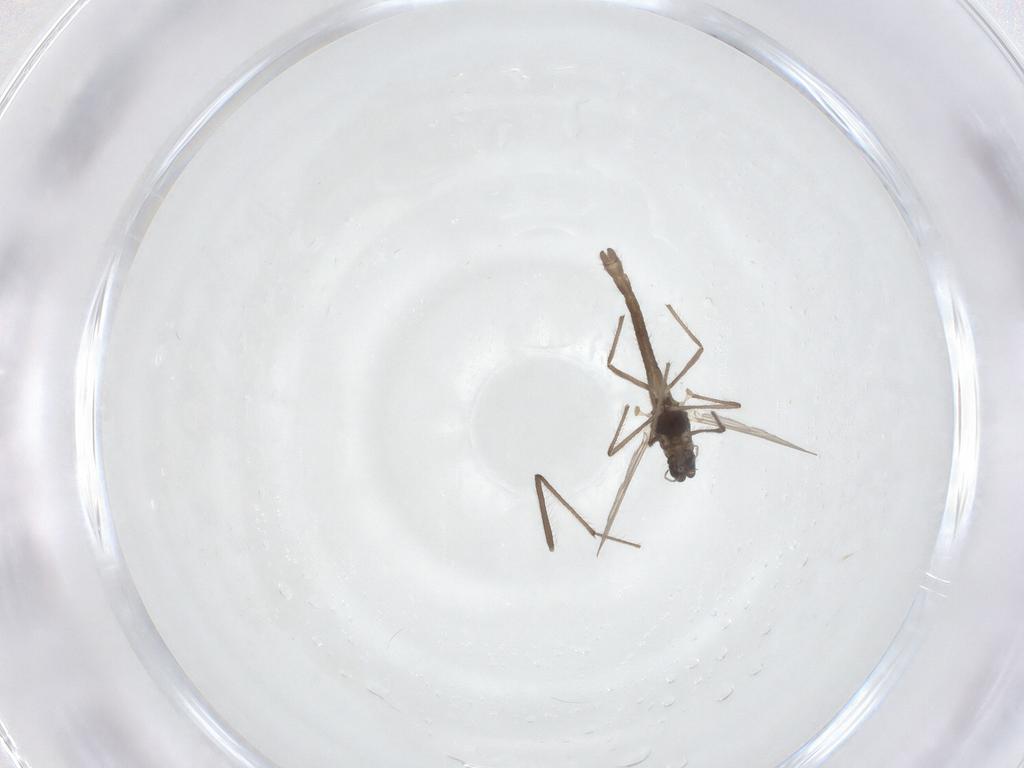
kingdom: Animalia
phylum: Arthropoda
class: Insecta
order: Diptera
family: Chironomidae
